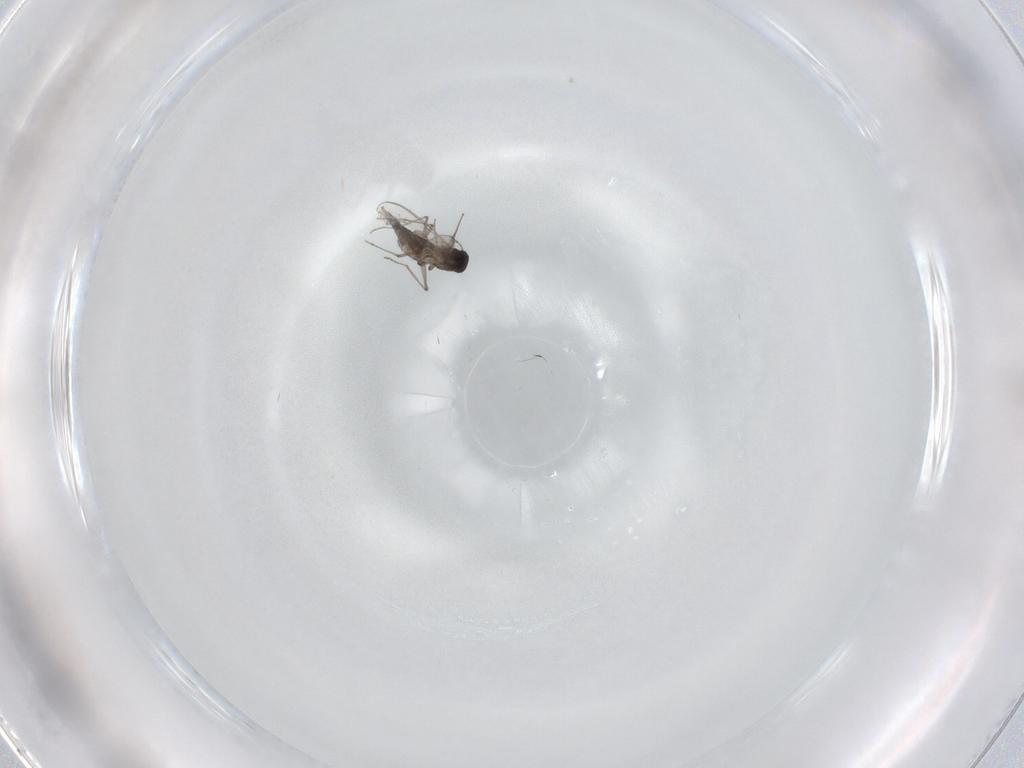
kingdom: Animalia
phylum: Arthropoda
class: Insecta
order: Diptera
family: Chironomidae
